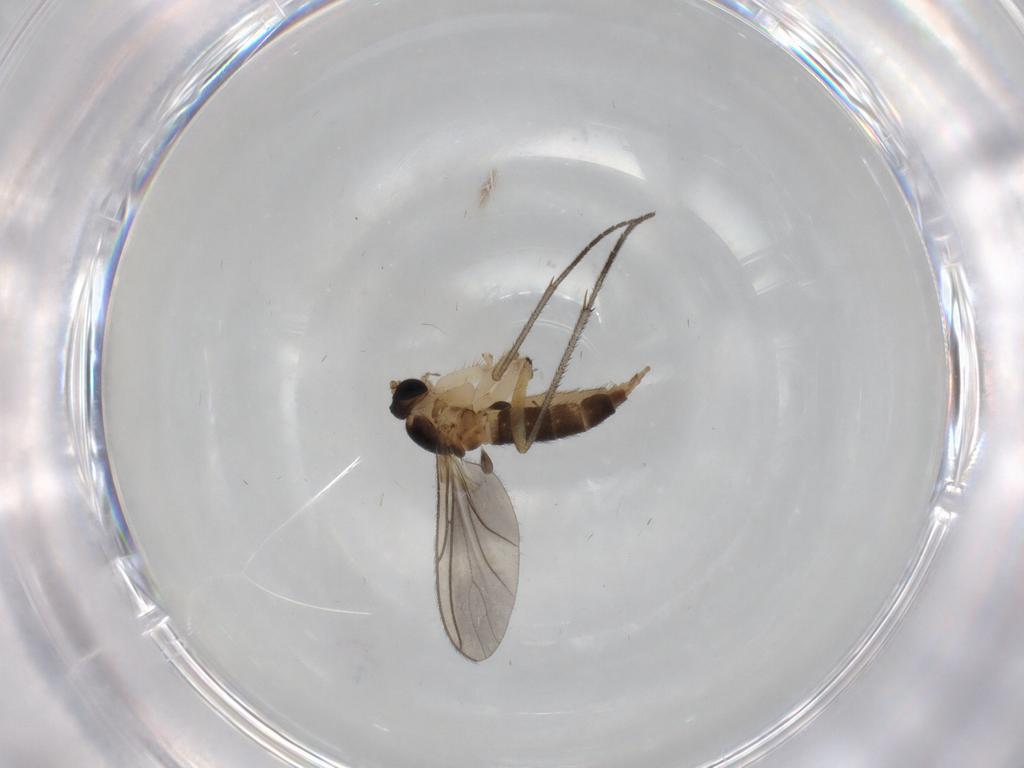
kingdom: Animalia
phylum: Arthropoda
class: Insecta
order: Diptera
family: Sciaridae
